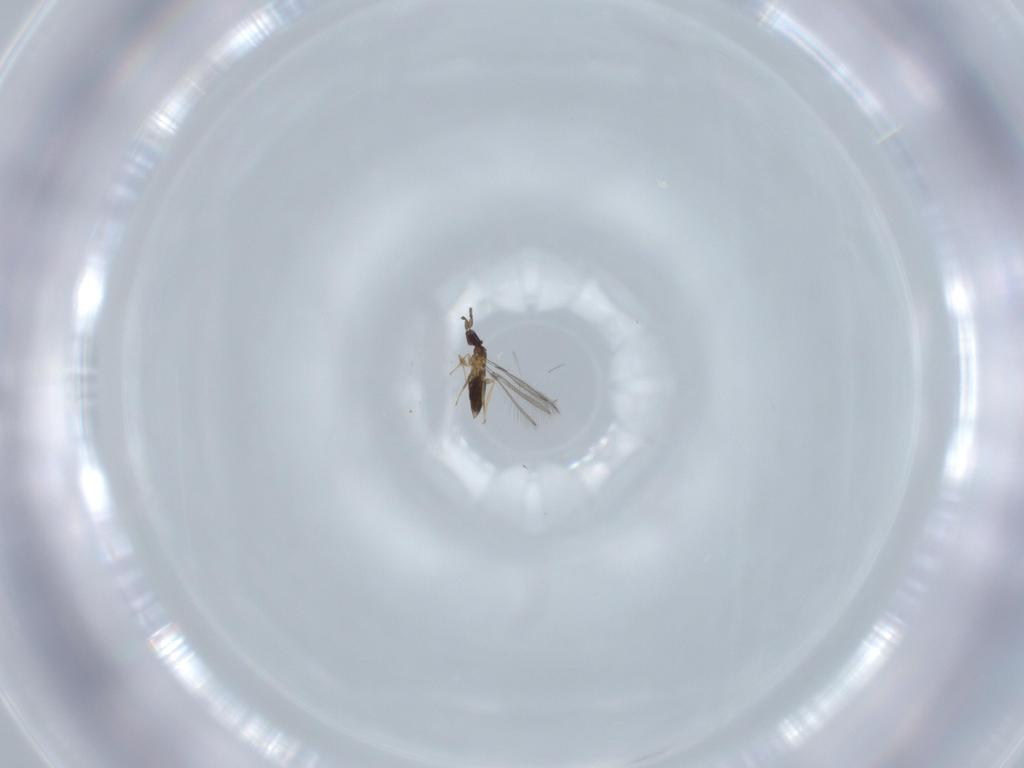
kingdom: Animalia
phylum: Arthropoda
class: Insecta
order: Hymenoptera
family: Mymaridae
